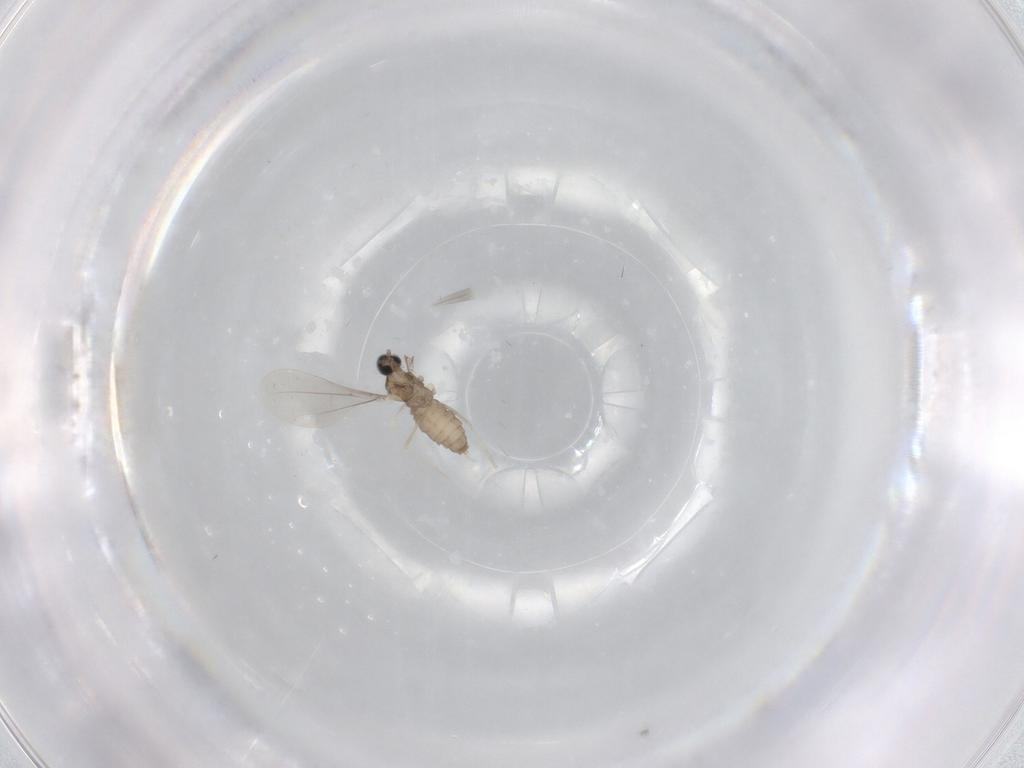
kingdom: Animalia
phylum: Arthropoda
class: Insecta
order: Diptera
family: Cecidomyiidae
